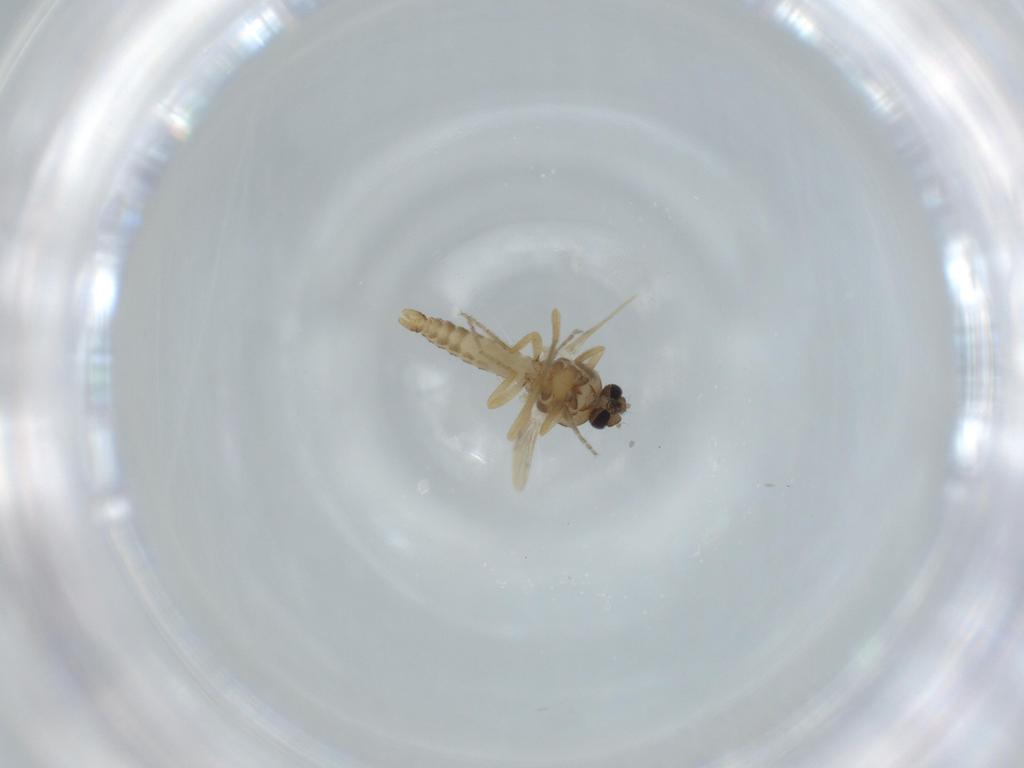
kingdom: Animalia
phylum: Arthropoda
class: Insecta
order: Diptera
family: Ceratopogonidae
